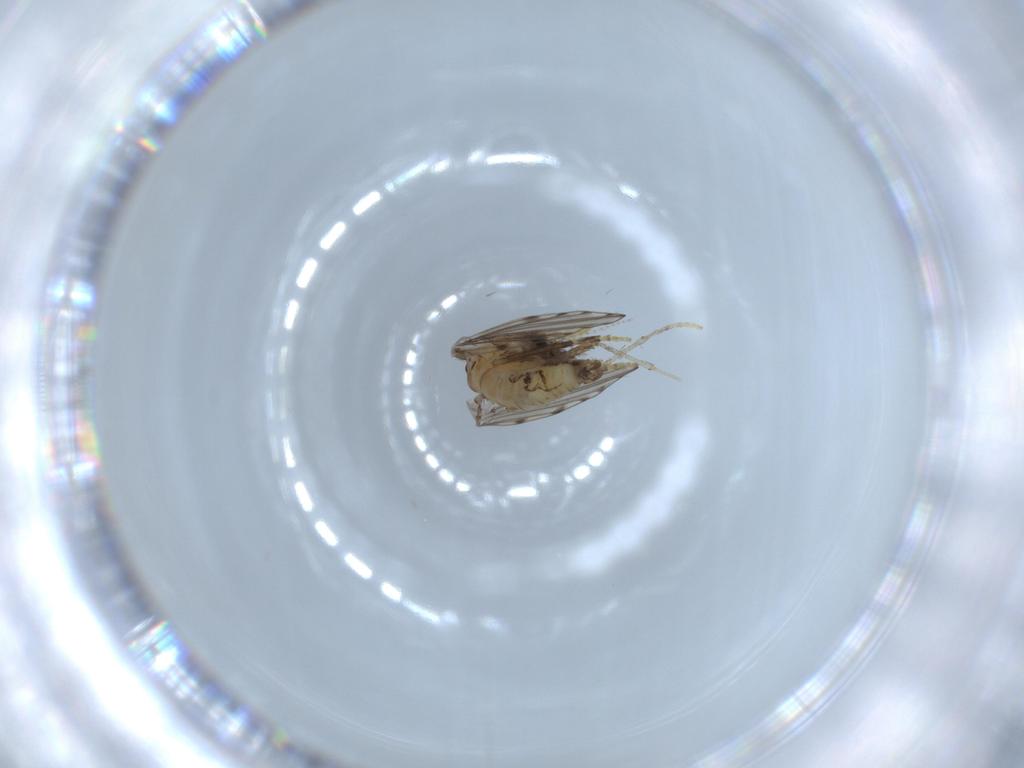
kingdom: Animalia
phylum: Arthropoda
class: Insecta
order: Diptera
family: Psychodidae
